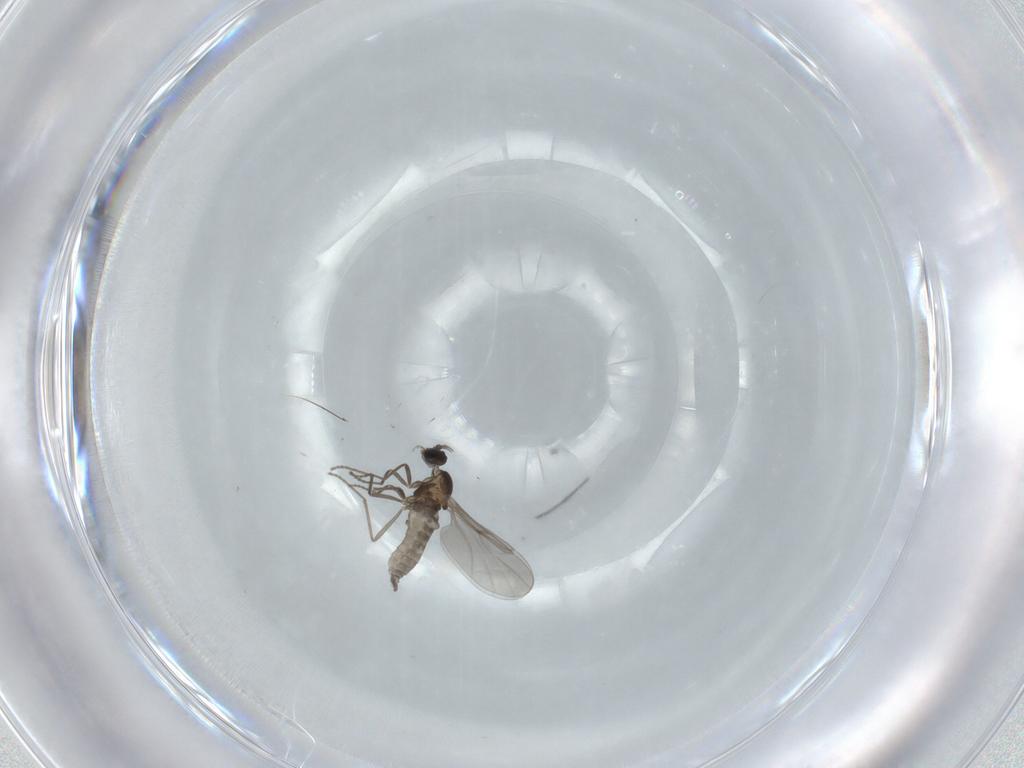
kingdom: Animalia
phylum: Arthropoda
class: Insecta
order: Diptera
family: Cecidomyiidae
